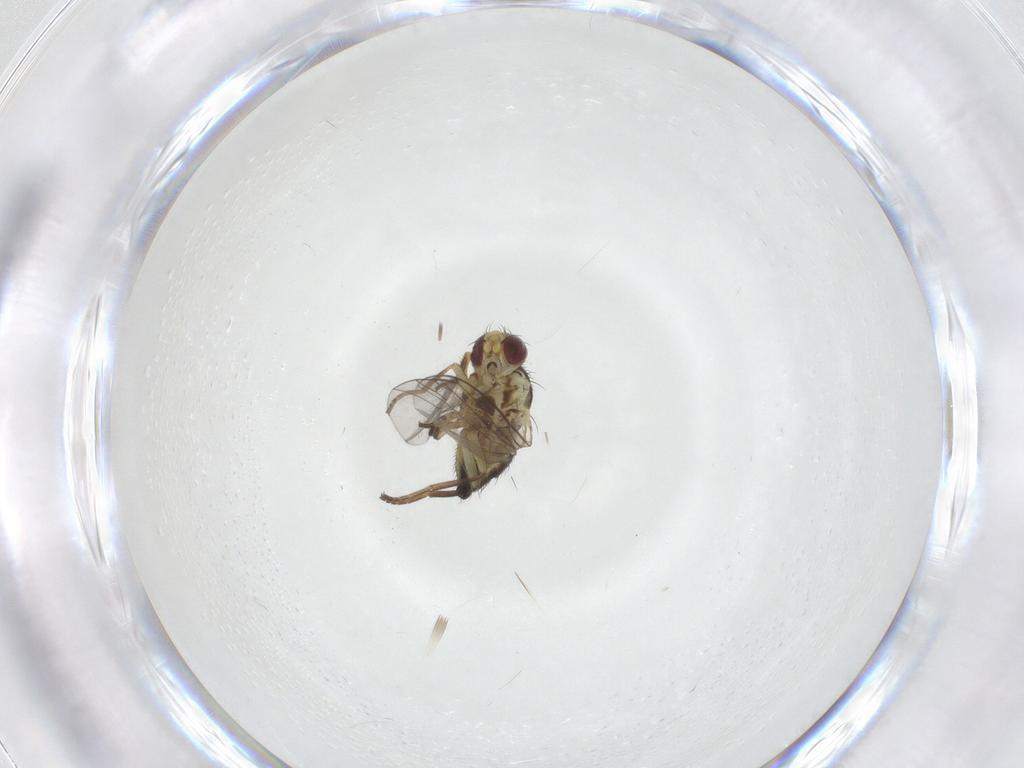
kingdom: Animalia
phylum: Arthropoda
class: Insecta
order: Diptera
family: Agromyzidae
